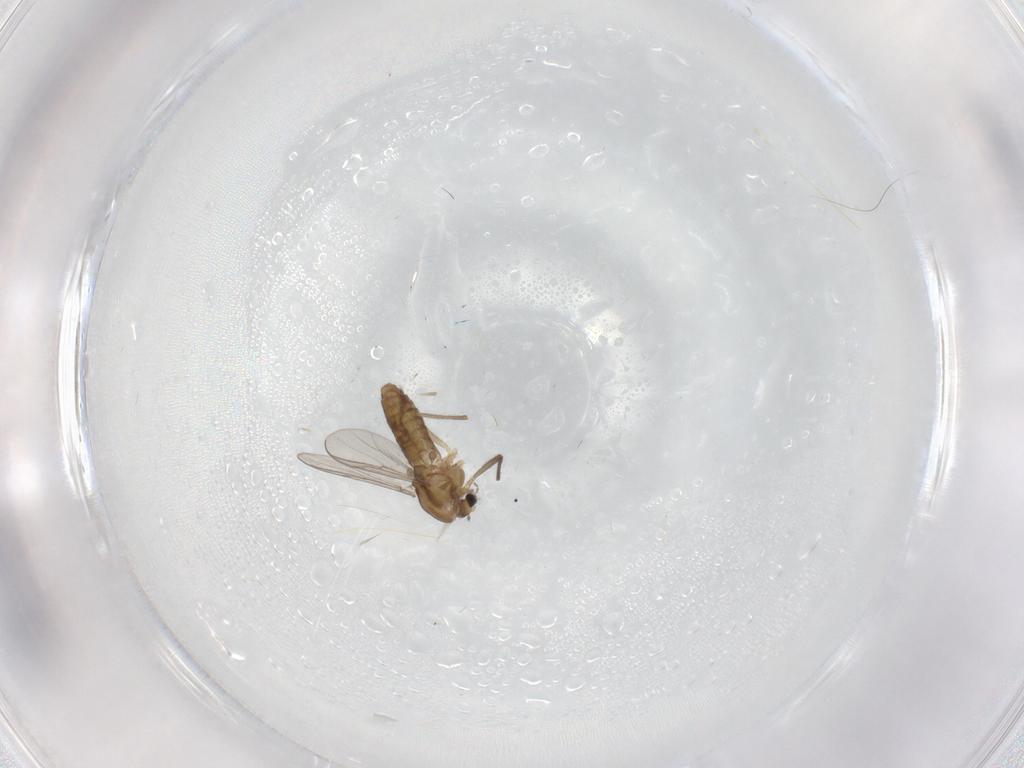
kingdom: Animalia
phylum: Arthropoda
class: Insecta
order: Diptera
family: Chironomidae
